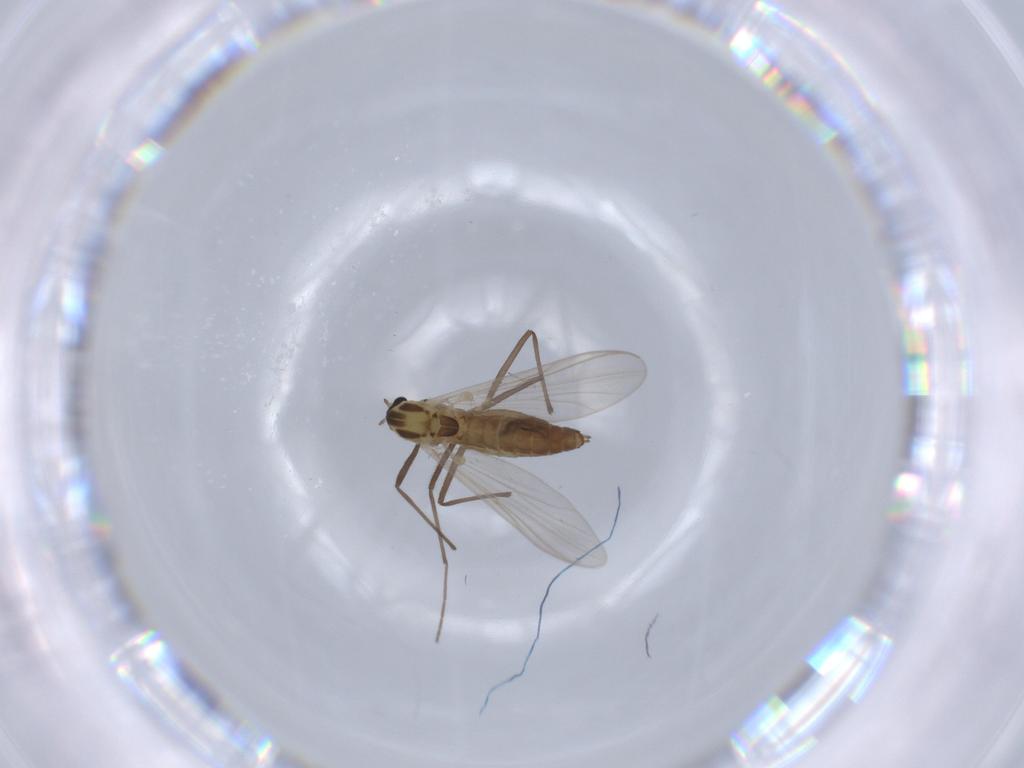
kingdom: Animalia
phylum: Arthropoda
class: Insecta
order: Diptera
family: Chironomidae
